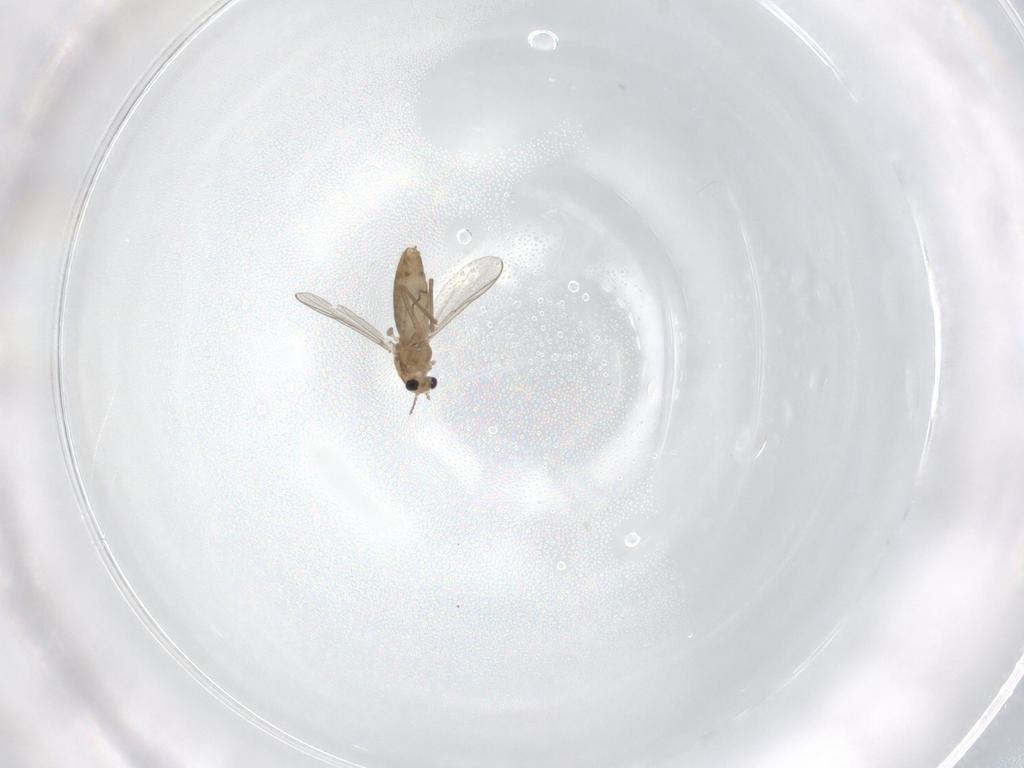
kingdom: Animalia
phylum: Arthropoda
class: Insecta
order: Diptera
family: Chironomidae
